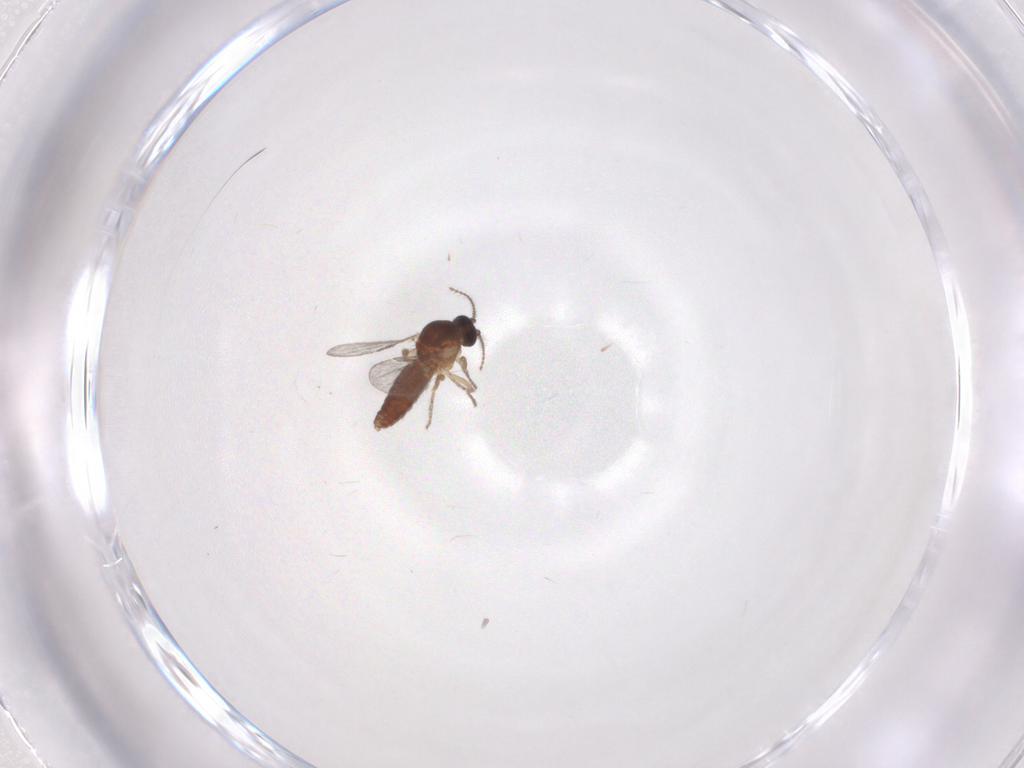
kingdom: Animalia
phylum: Arthropoda
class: Insecta
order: Diptera
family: Ceratopogonidae
